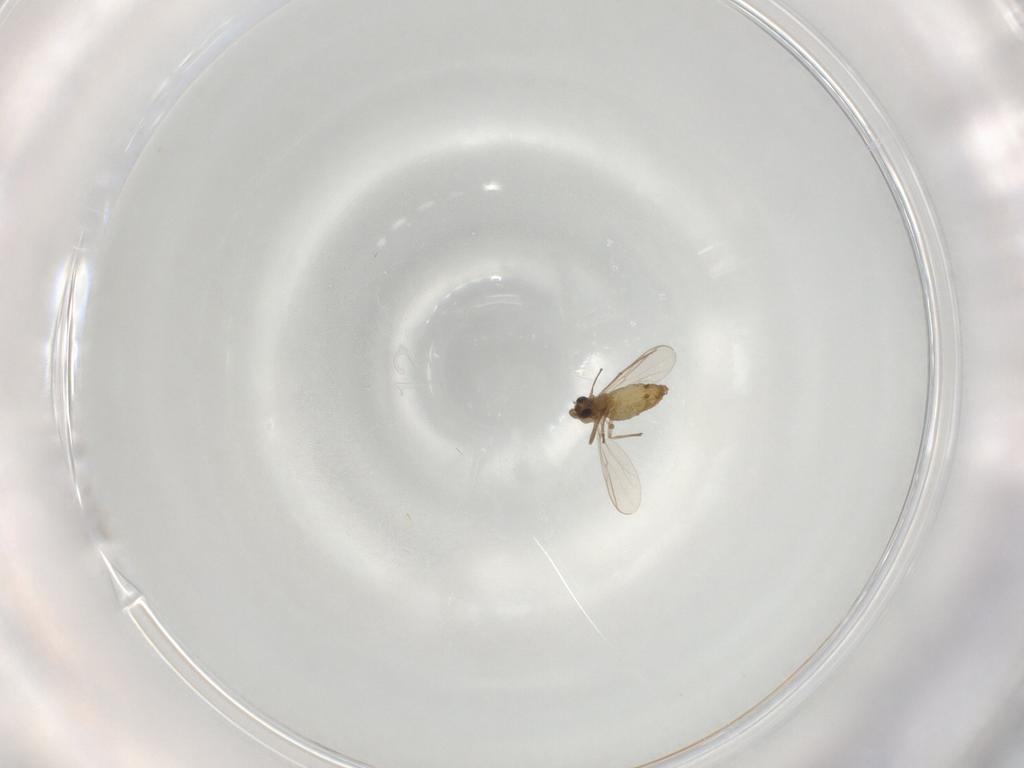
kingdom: Animalia
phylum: Arthropoda
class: Insecta
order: Diptera
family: Chironomidae
